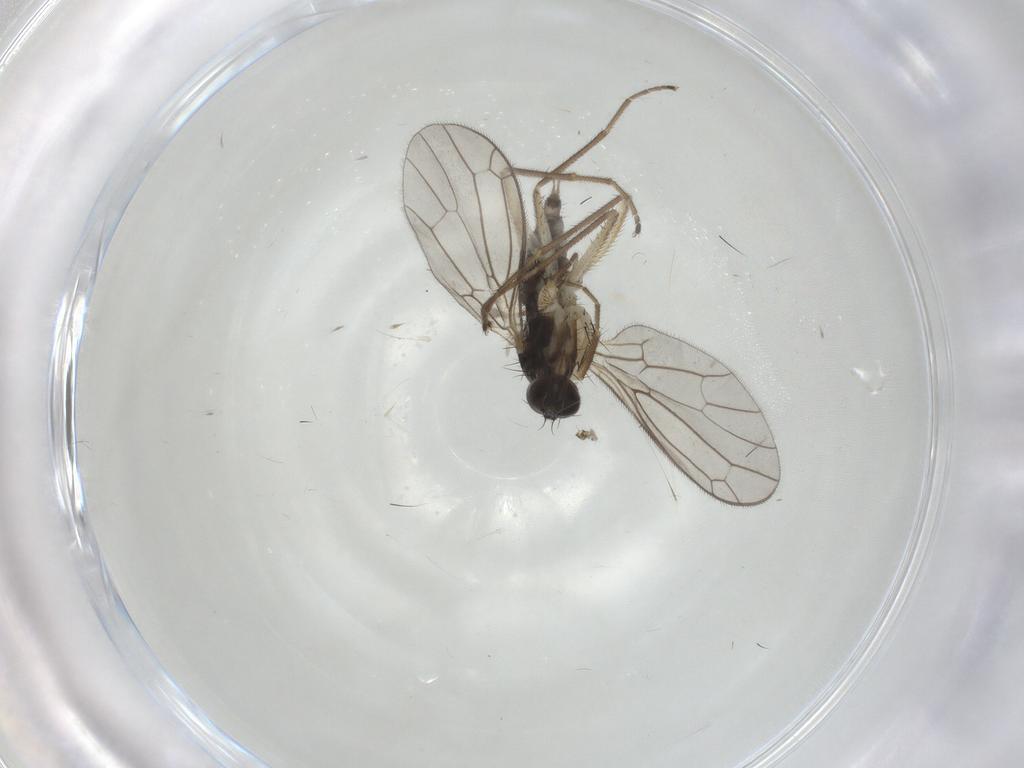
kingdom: Animalia
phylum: Arthropoda
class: Insecta
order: Diptera
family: Empididae
